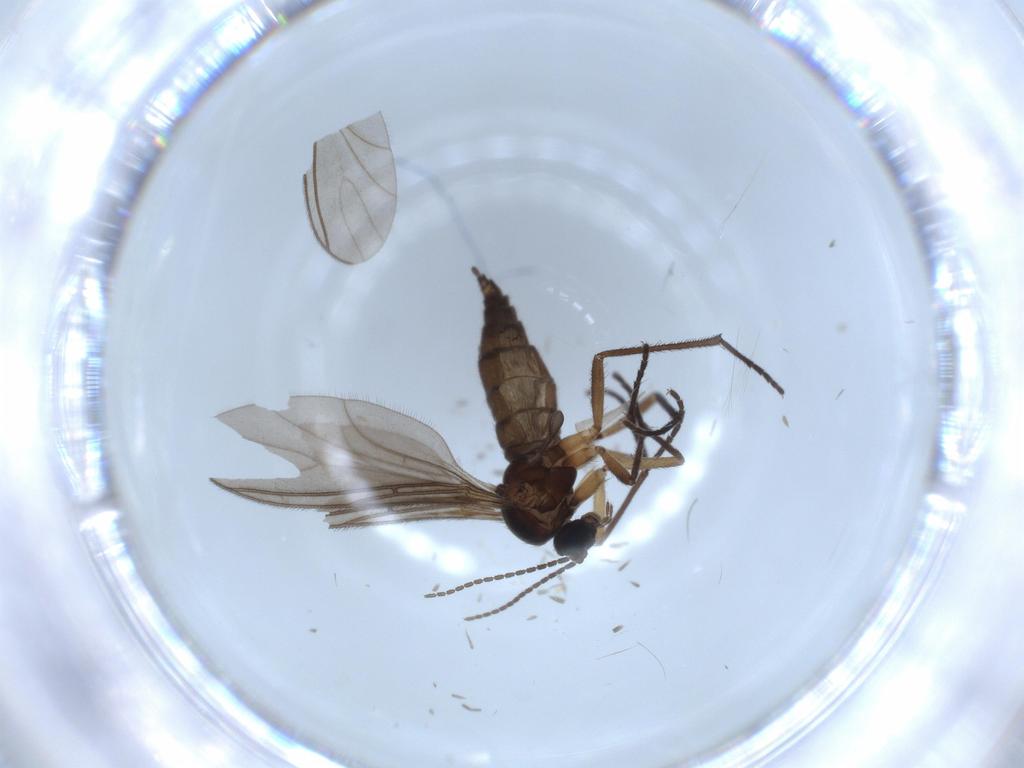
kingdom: Animalia
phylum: Arthropoda
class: Insecta
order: Diptera
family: Sciaridae
